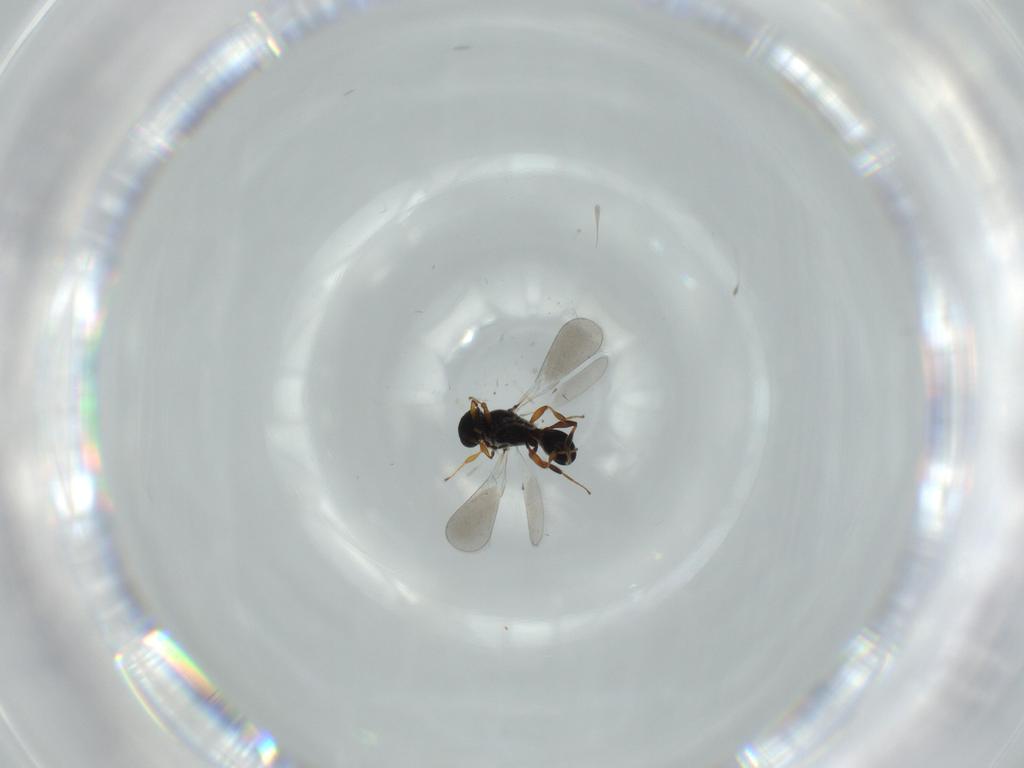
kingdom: Animalia
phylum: Arthropoda
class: Insecta
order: Hymenoptera
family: Platygastridae
